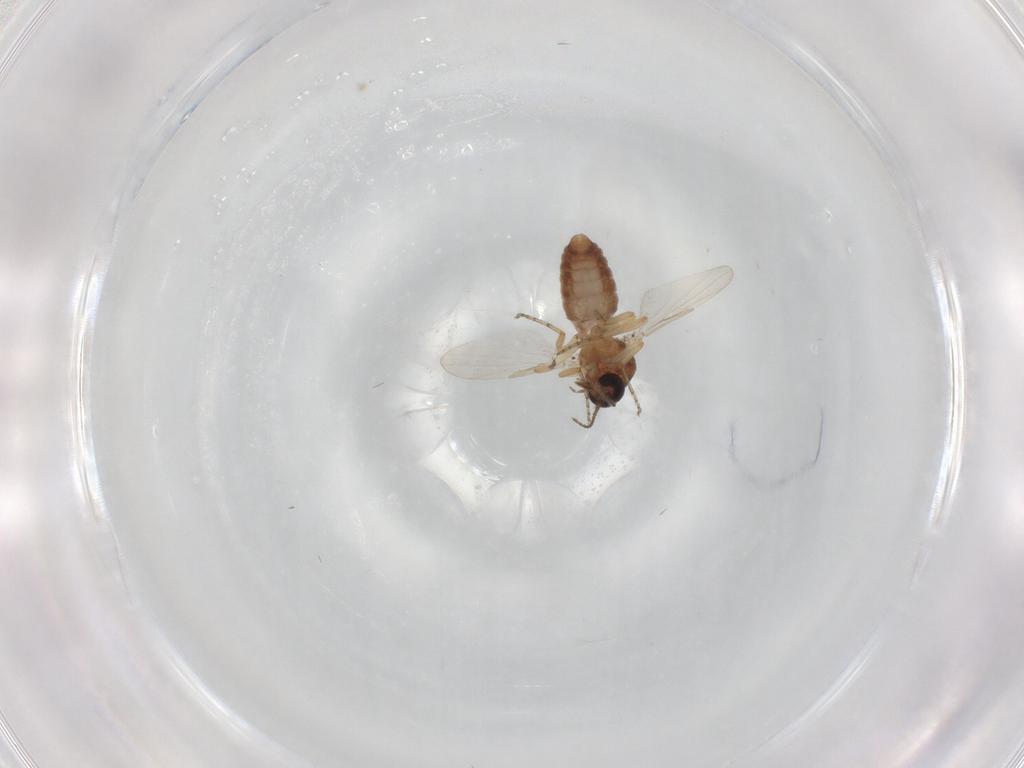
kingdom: Animalia
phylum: Arthropoda
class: Insecta
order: Diptera
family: Ceratopogonidae
